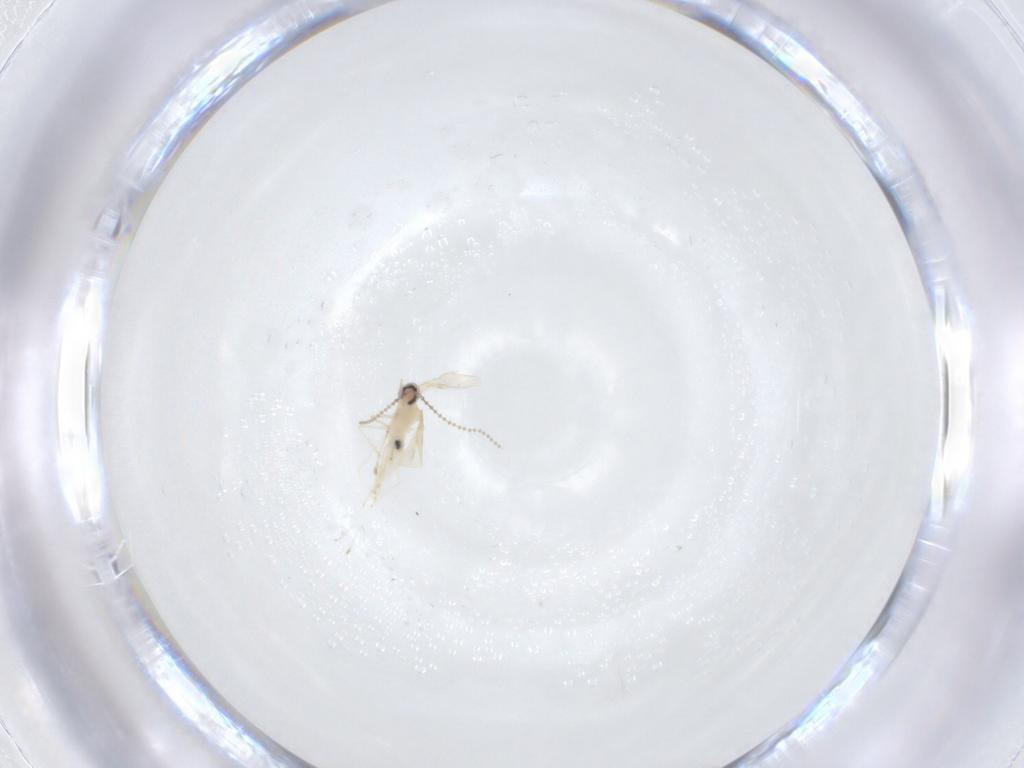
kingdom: Animalia
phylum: Arthropoda
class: Insecta
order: Diptera
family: Cecidomyiidae
